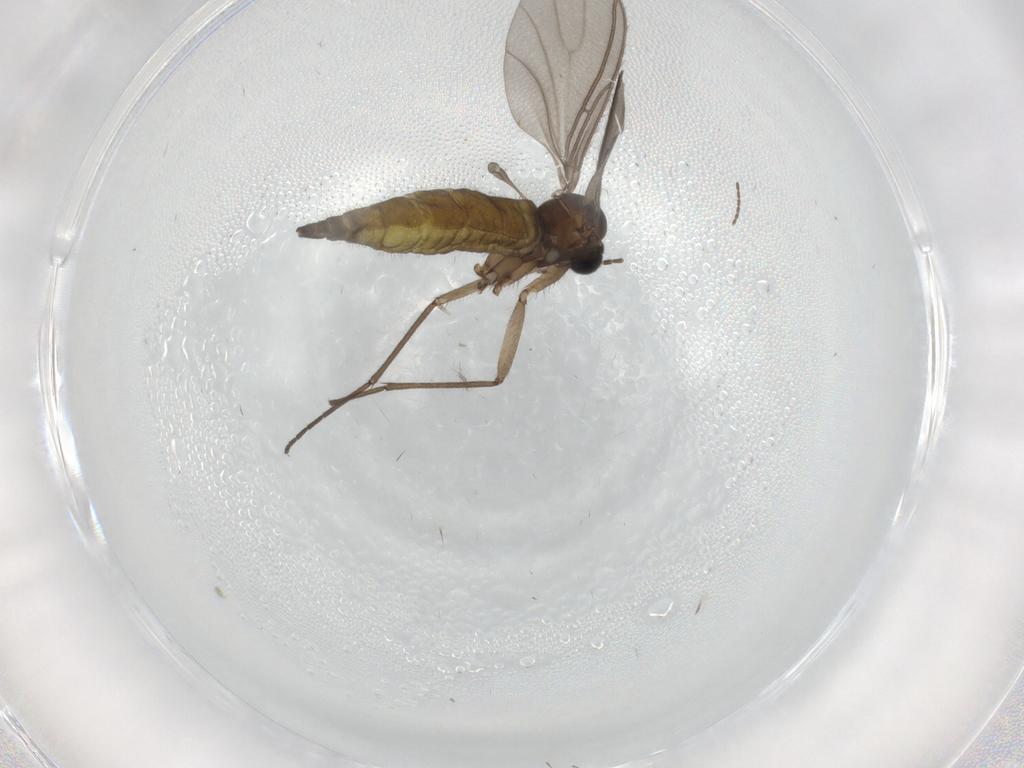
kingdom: Animalia
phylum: Arthropoda
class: Insecta
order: Diptera
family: Sciaridae
